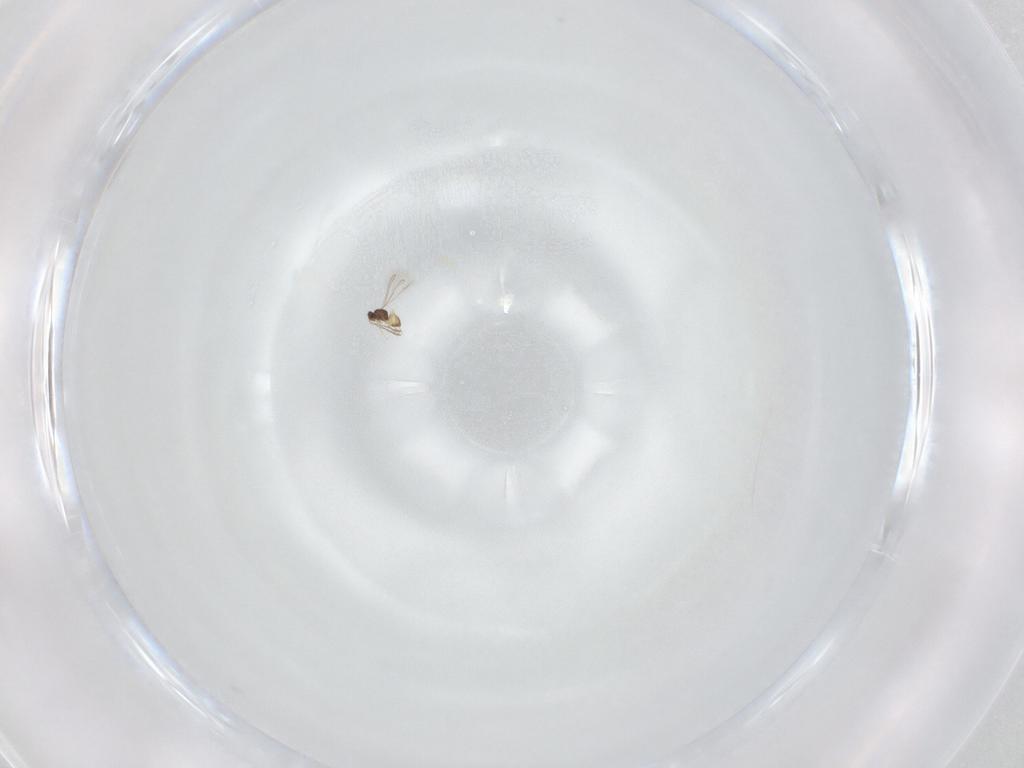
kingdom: Animalia
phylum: Arthropoda
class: Insecta
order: Hymenoptera
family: Mymaridae
